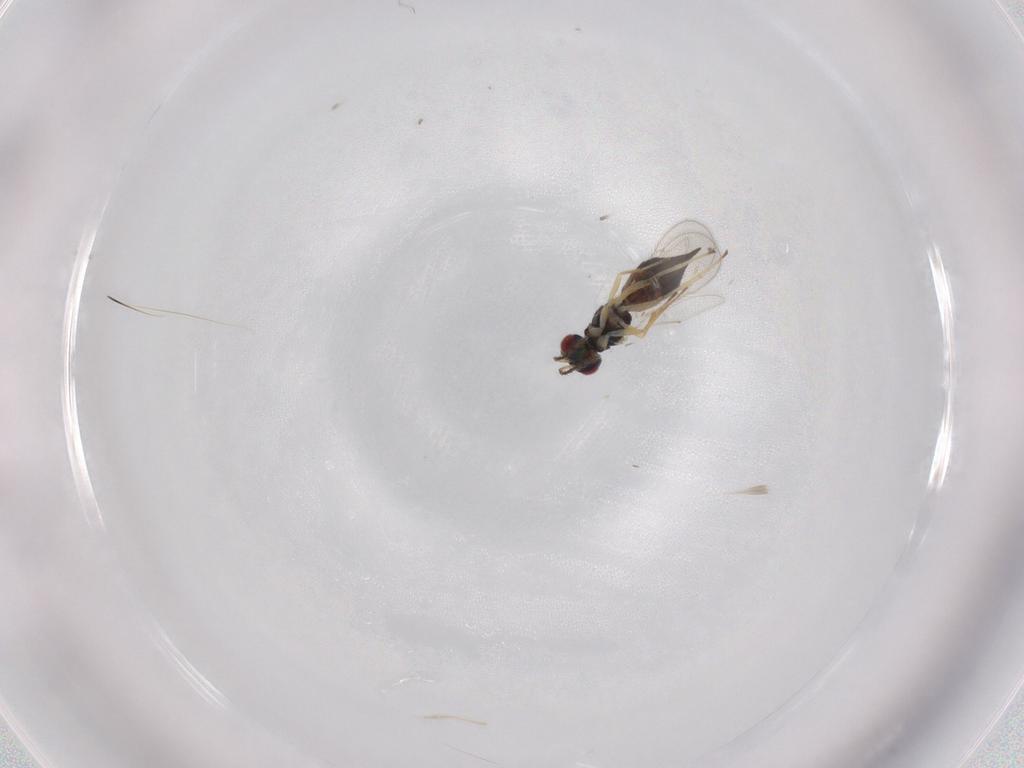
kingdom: Animalia
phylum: Arthropoda
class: Insecta
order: Hymenoptera
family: Eulophidae
